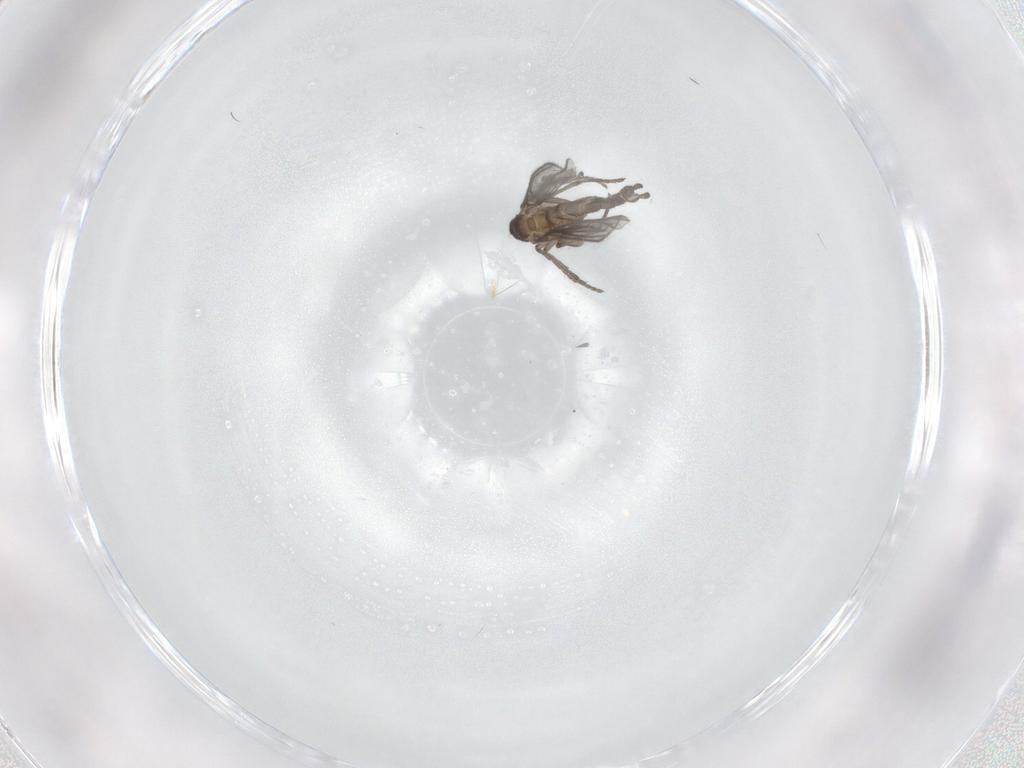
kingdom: Animalia
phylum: Arthropoda
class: Insecta
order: Diptera
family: Sciaridae
